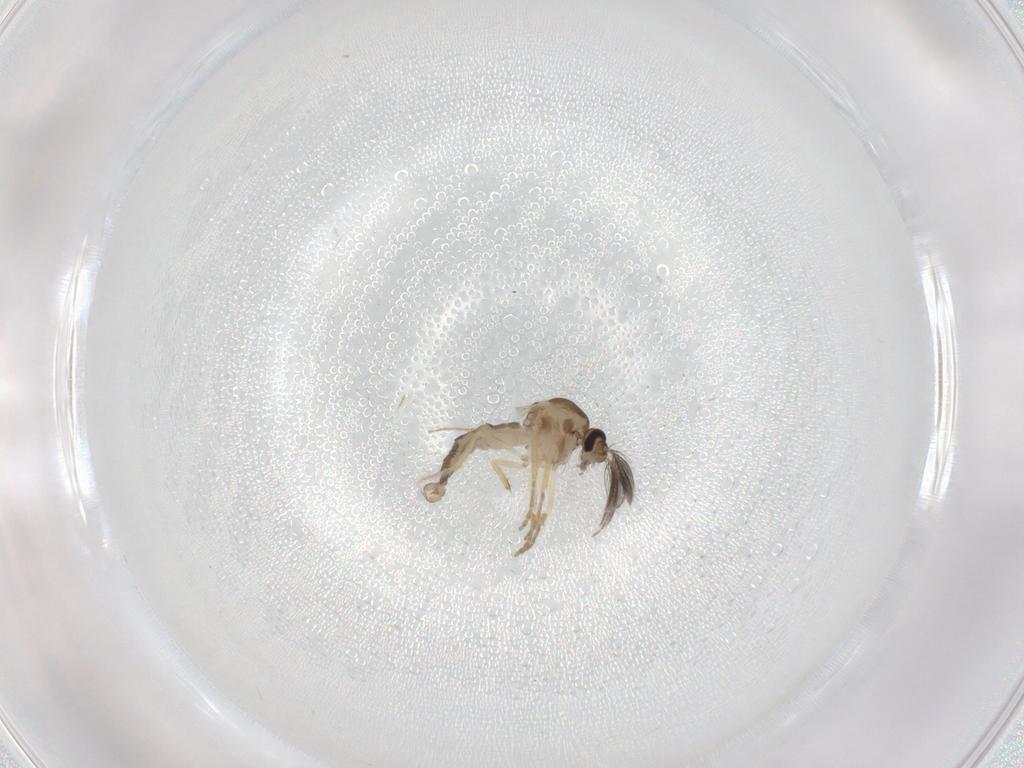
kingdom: Animalia
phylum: Arthropoda
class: Insecta
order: Diptera
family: Ceratopogonidae
